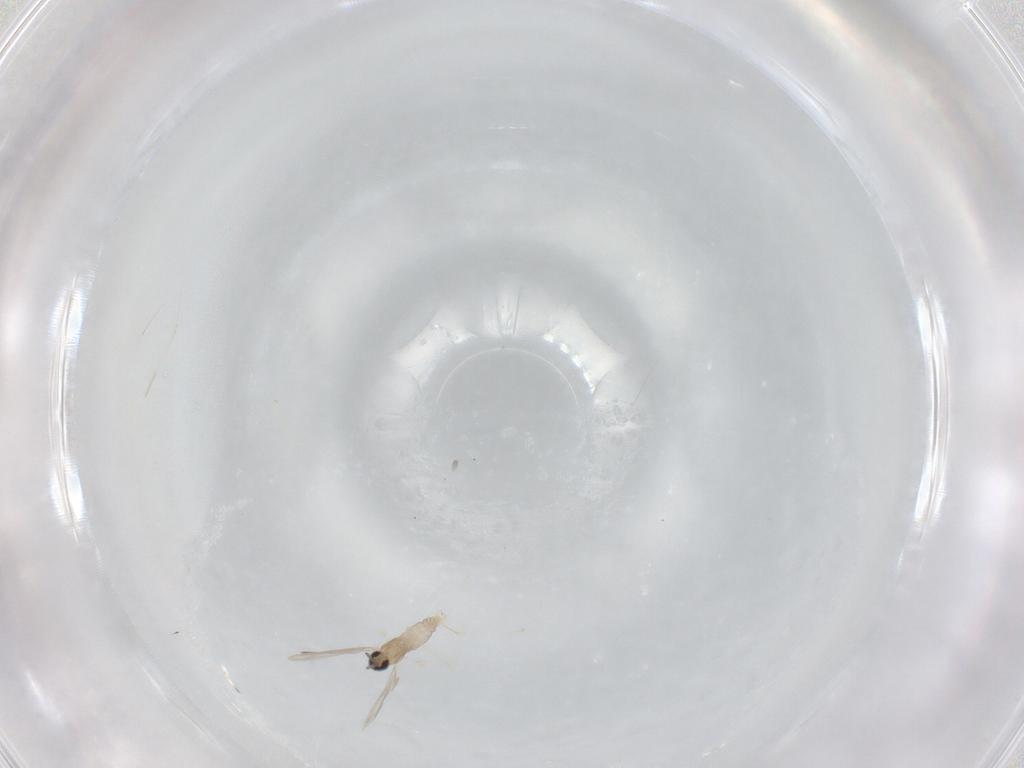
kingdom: Animalia
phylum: Arthropoda
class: Insecta
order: Diptera
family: Cecidomyiidae
